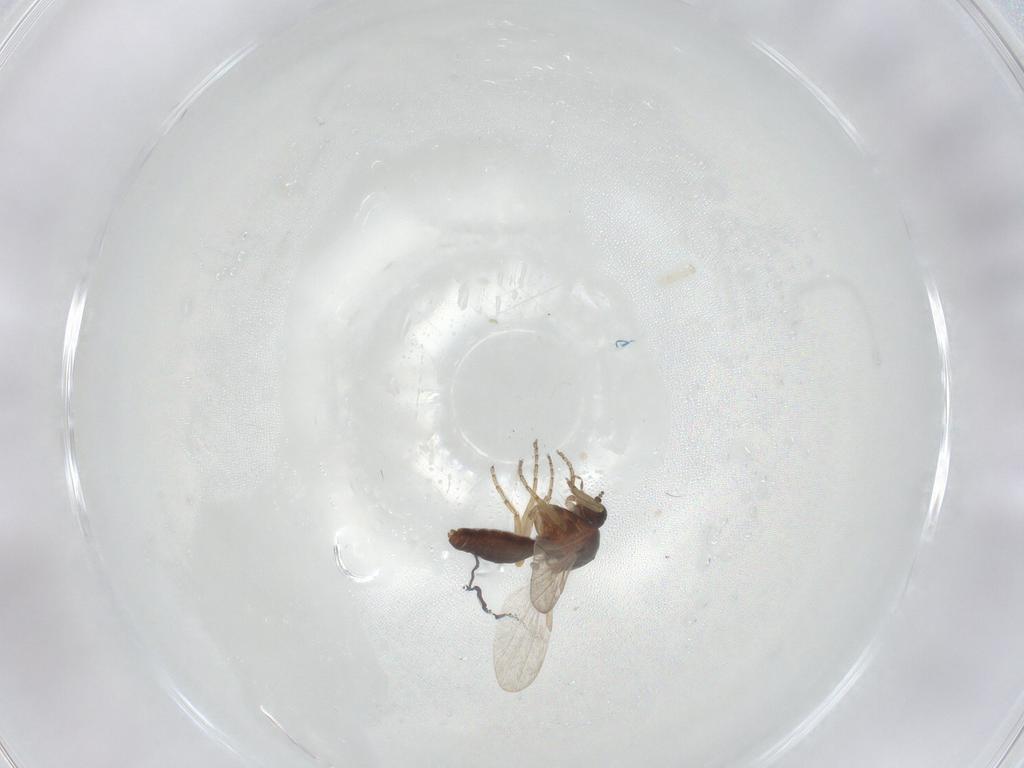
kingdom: Animalia
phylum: Arthropoda
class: Insecta
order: Diptera
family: Ceratopogonidae
